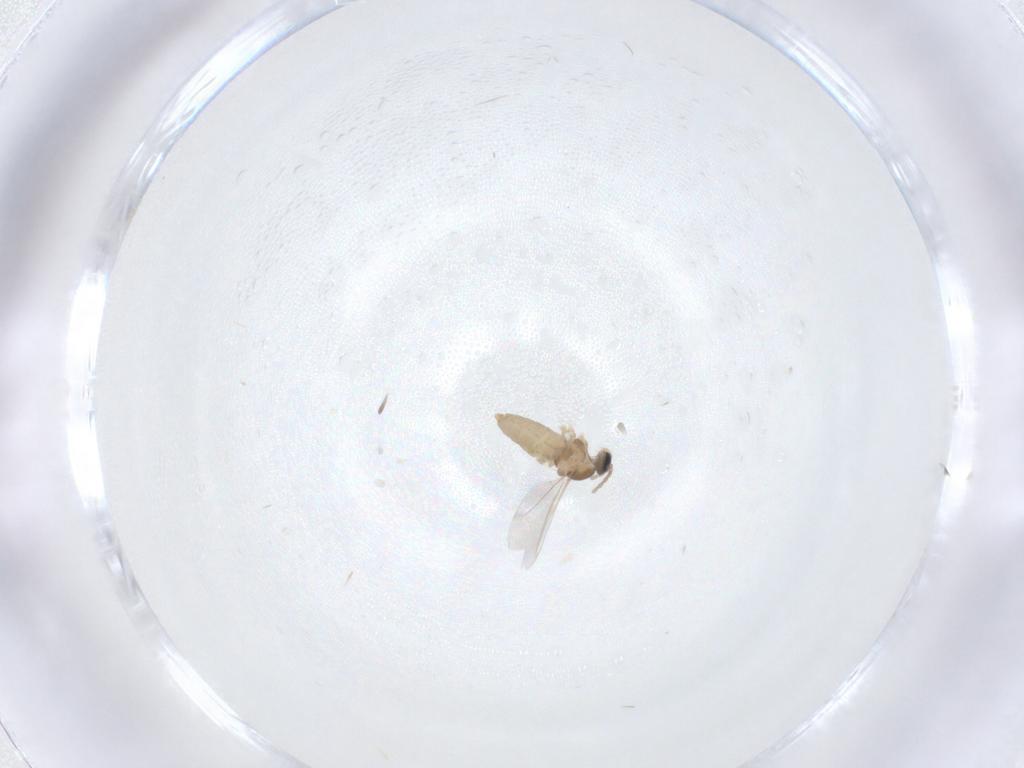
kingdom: Animalia
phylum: Arthropoda
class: Insecta
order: Diptera
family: Cecidomyiidae
